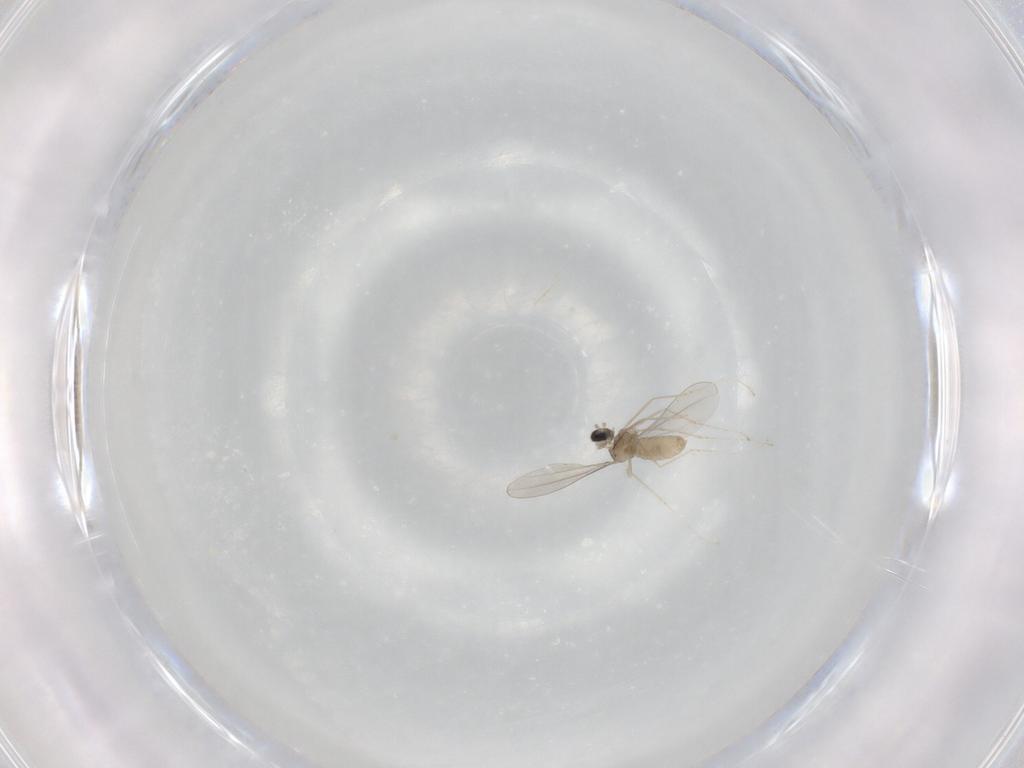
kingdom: Animalia
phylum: Arthropoda
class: Insecta
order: Diptera
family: Cecidomyiidae
